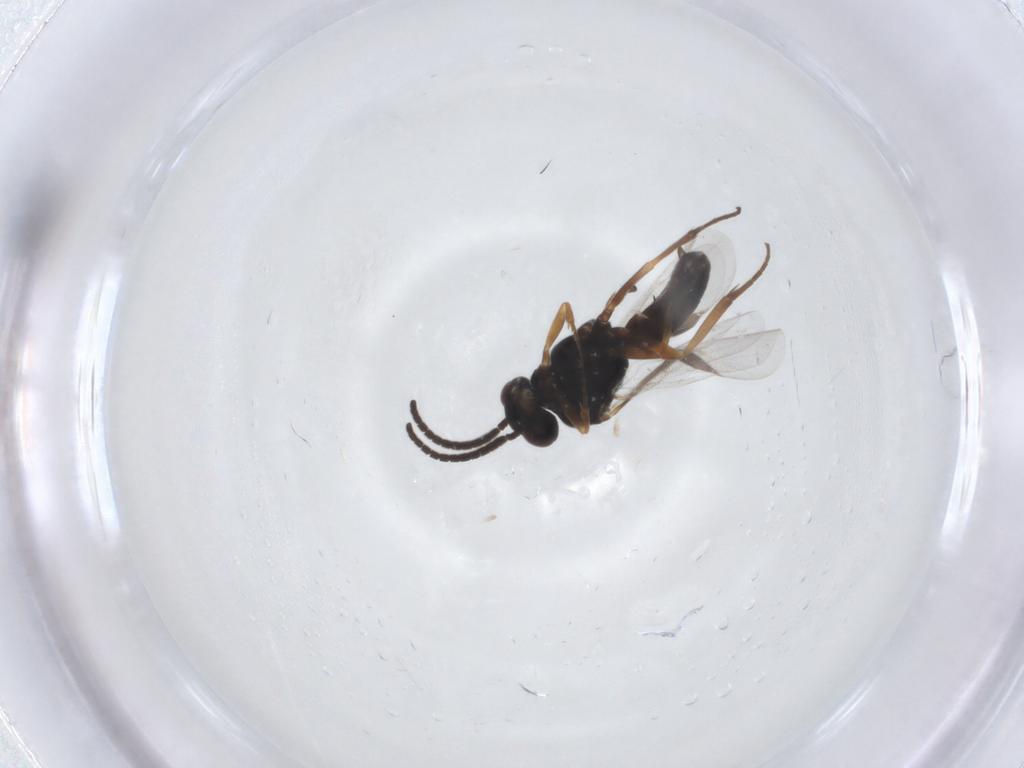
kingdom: Animalia
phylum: Arthropoda
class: Insecta
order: Hymenoptera
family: Braconidae
